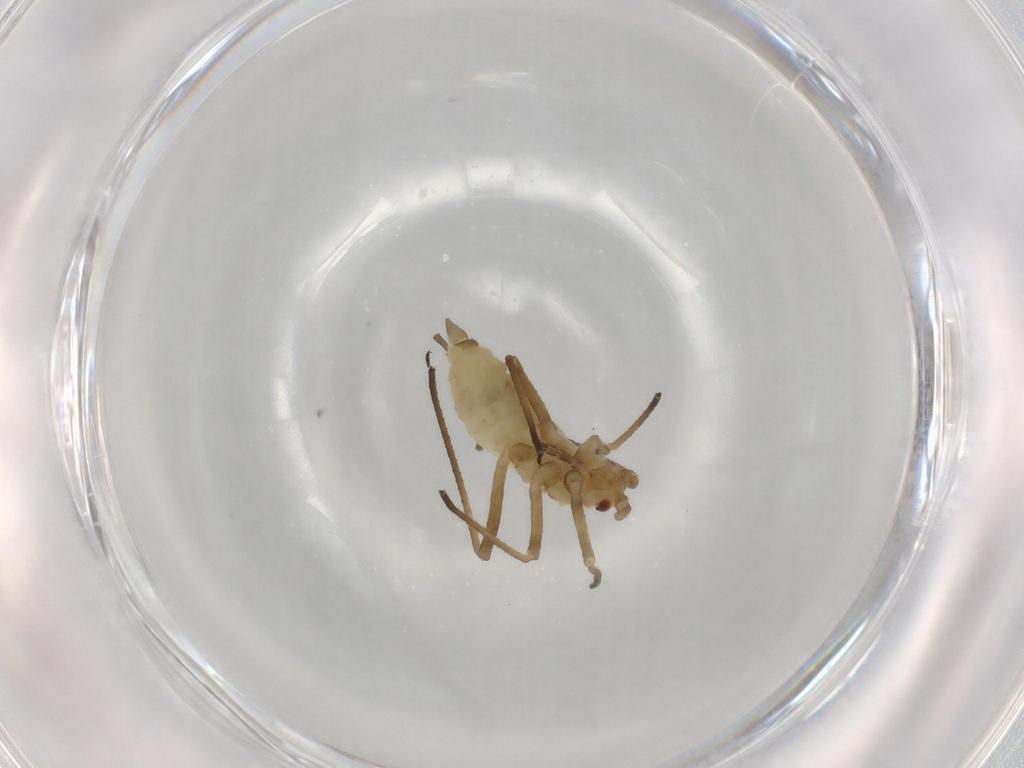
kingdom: Animalia
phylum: Arthropoda
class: Insecta
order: Hemiptera
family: Aphididae
